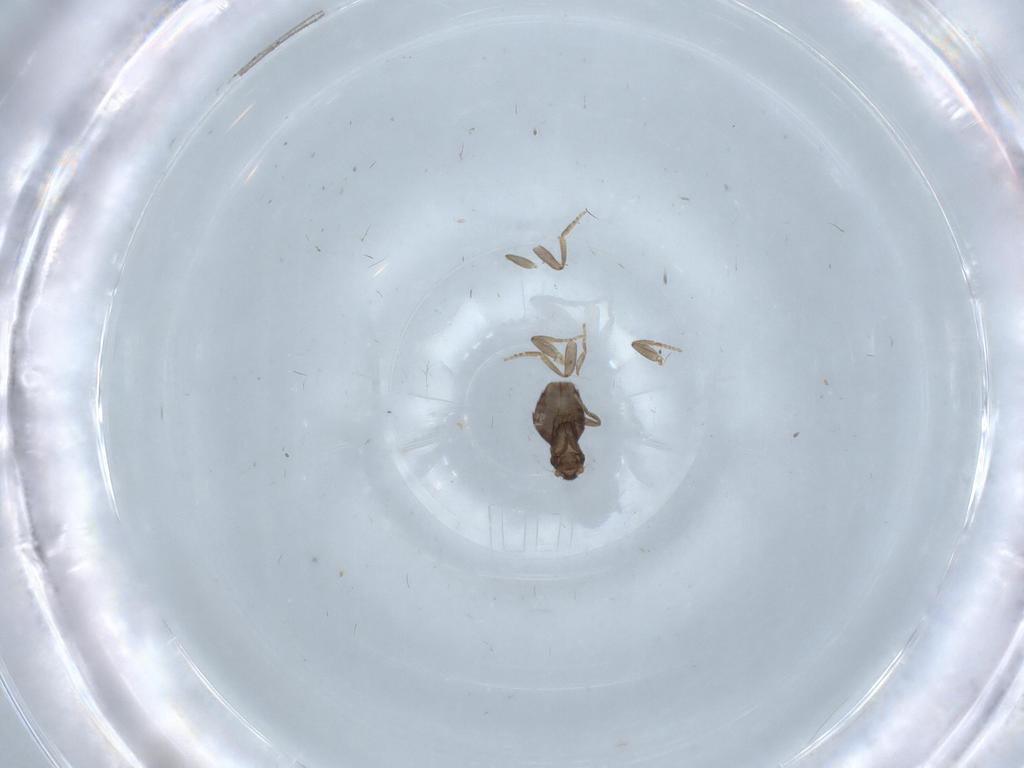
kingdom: Animalia
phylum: Arthropoda
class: Insecta
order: Diptera
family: Chironomidae
